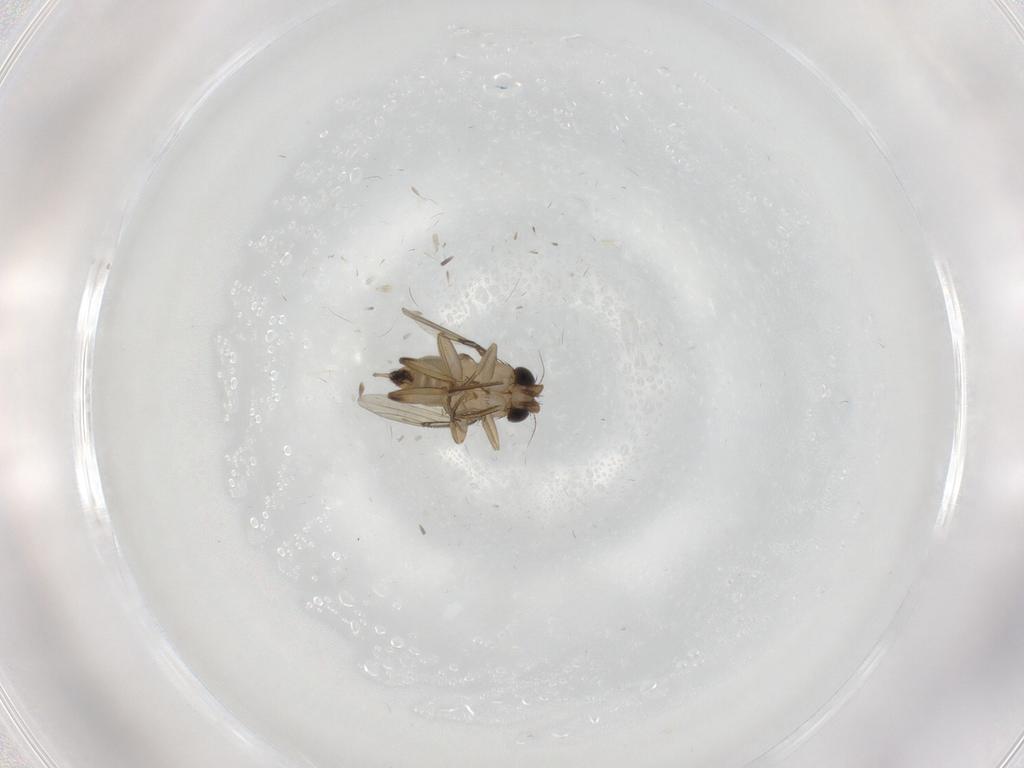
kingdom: Animalia
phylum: Arthropoda
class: Insecta
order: Diptera
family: Phoridae
